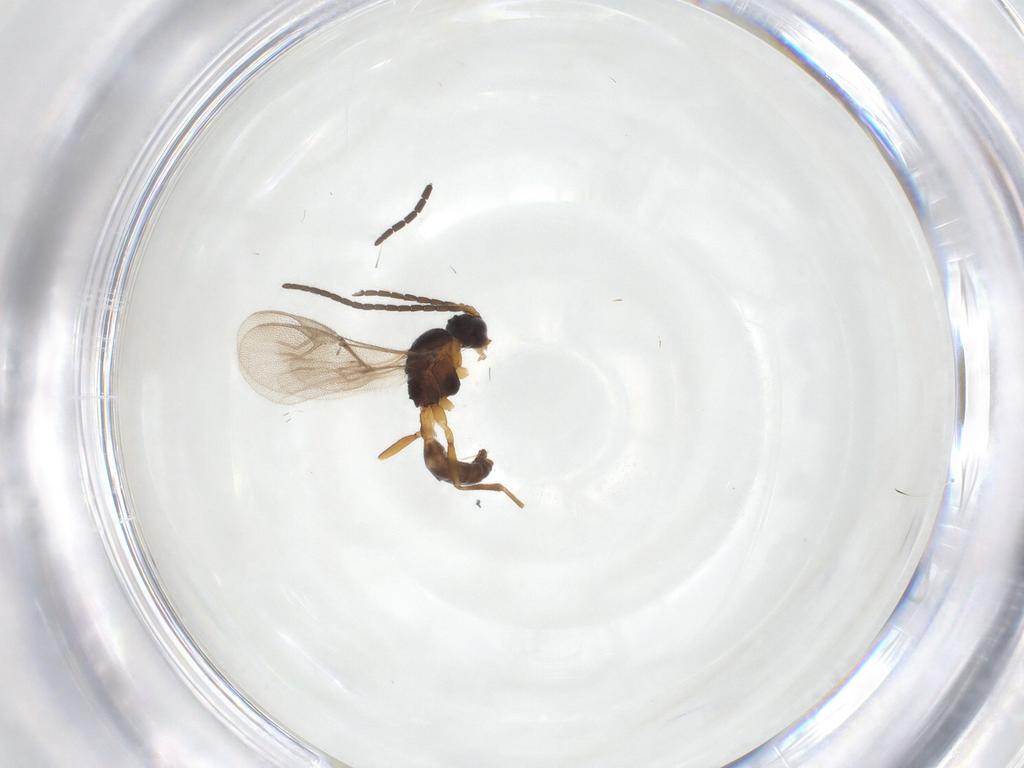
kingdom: Animalia
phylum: Arthropoda
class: Insecta
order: Hymenoptera
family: Braconidae
